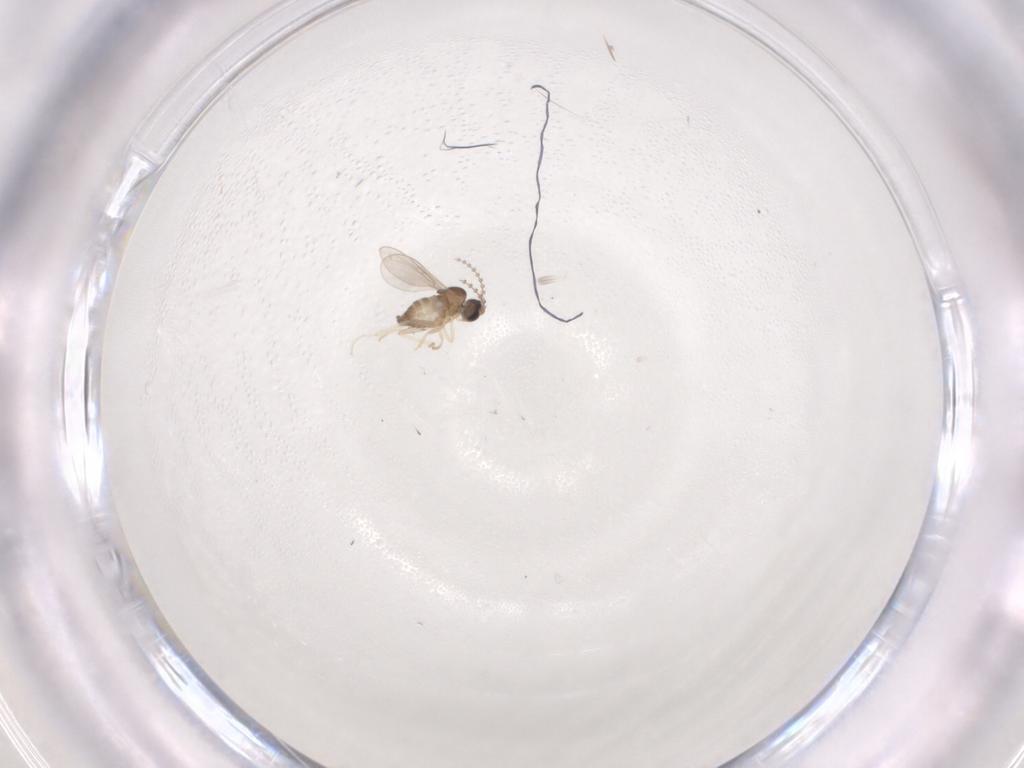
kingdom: Animalia
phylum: Arthropoda
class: Insecta
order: Diptera
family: Cecidomyiidae
